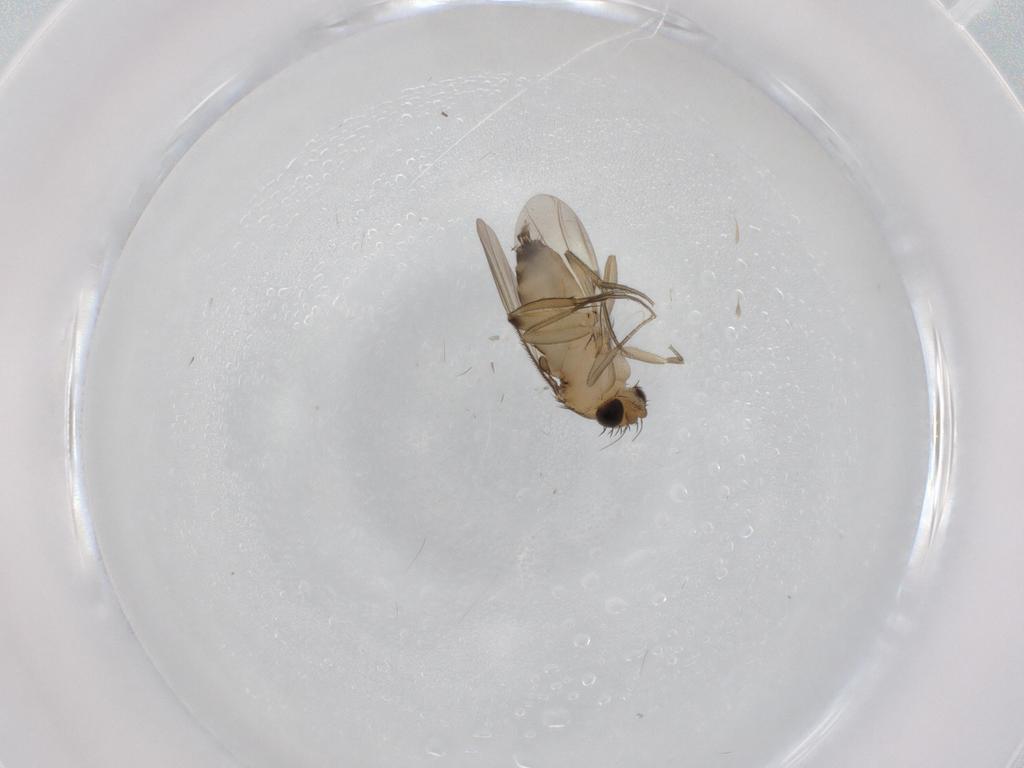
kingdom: Animalia
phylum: Arthropoda
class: Insecta
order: Diptera
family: Phoridae
